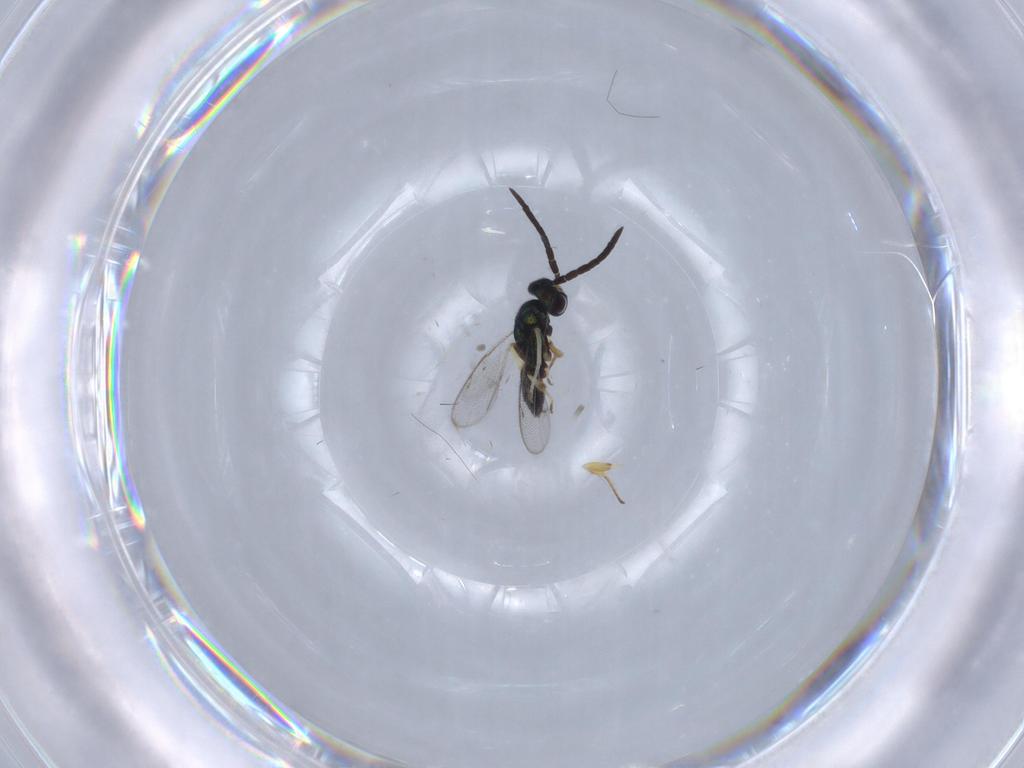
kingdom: Animalia
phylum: Arthropoda
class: Insecta
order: Hymenoptera
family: Eupelmidae
